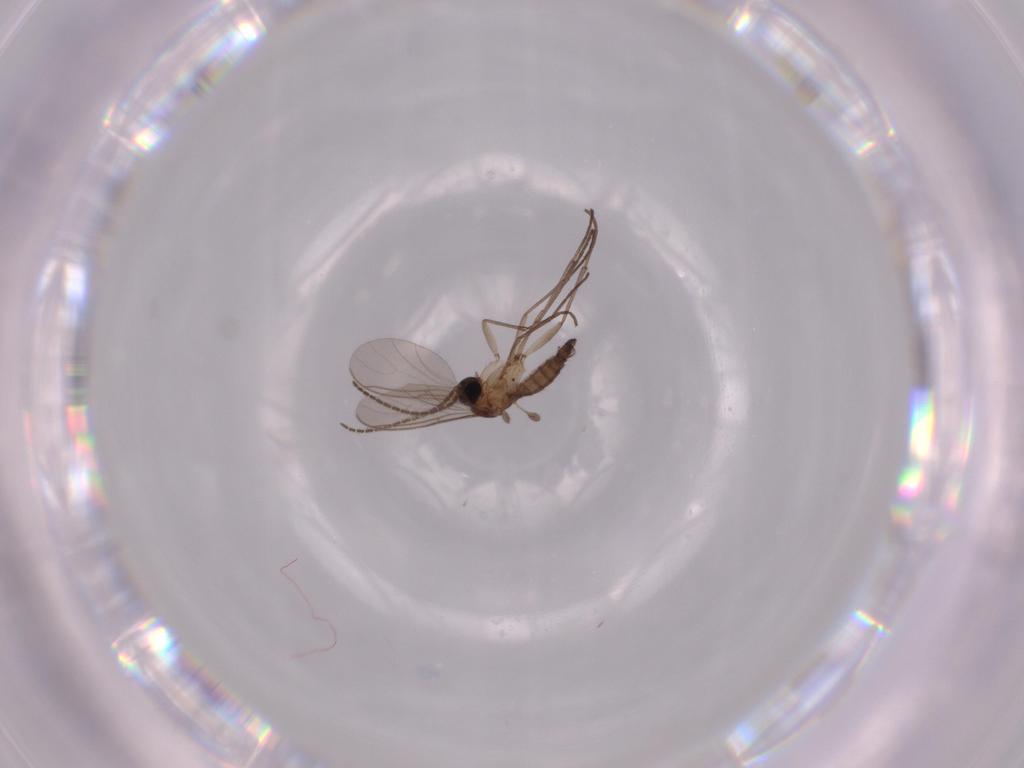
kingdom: Animalia
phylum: Arthropoda
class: Insecta
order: Diptera
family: Sciaridae
